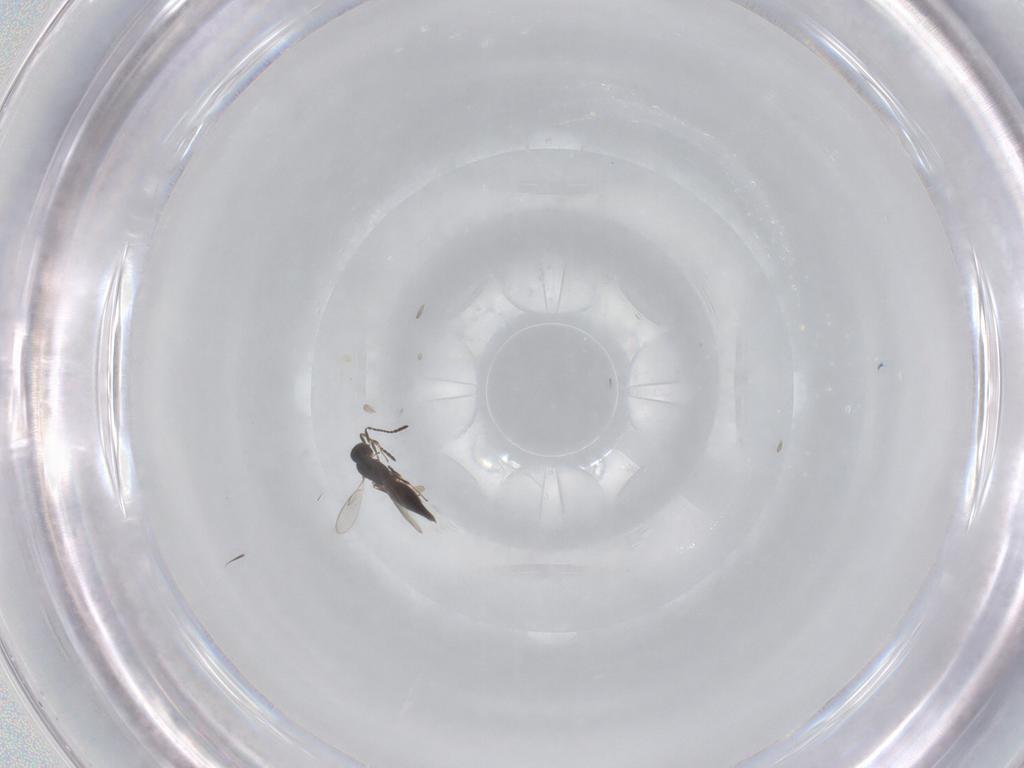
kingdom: Animalia
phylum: Arthropoda
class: Insecta
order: Hymenoptera
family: Scelionidae
